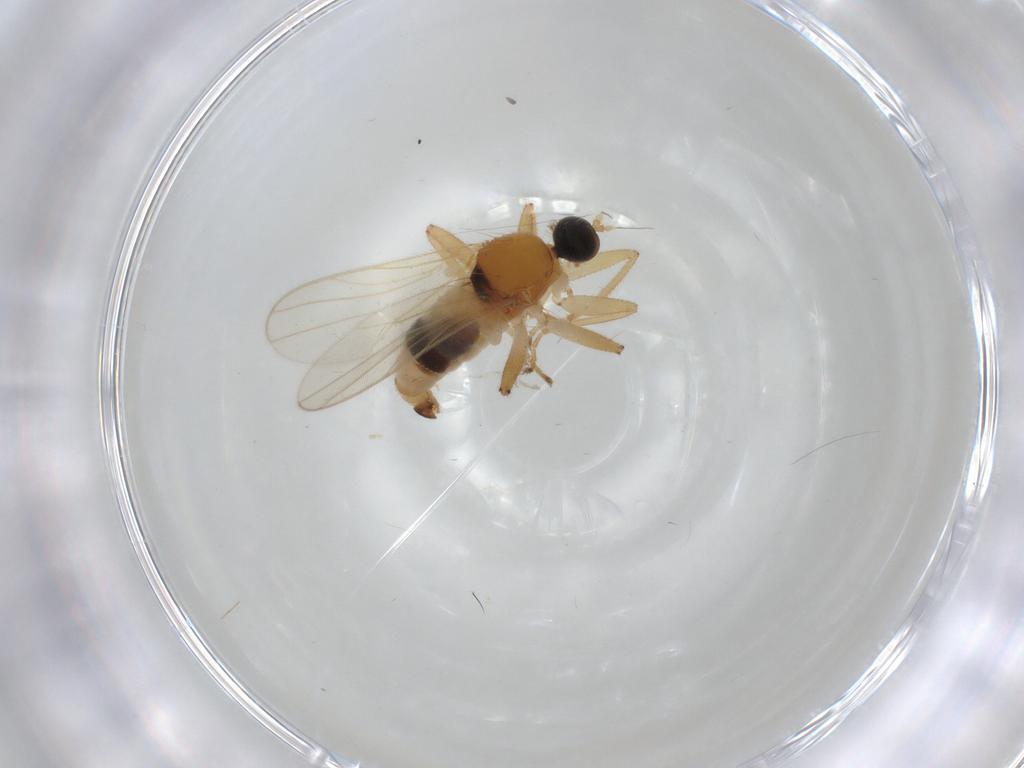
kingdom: Animalia
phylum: Arthropoda
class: Insecta
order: Diptera
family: Hybotidae
